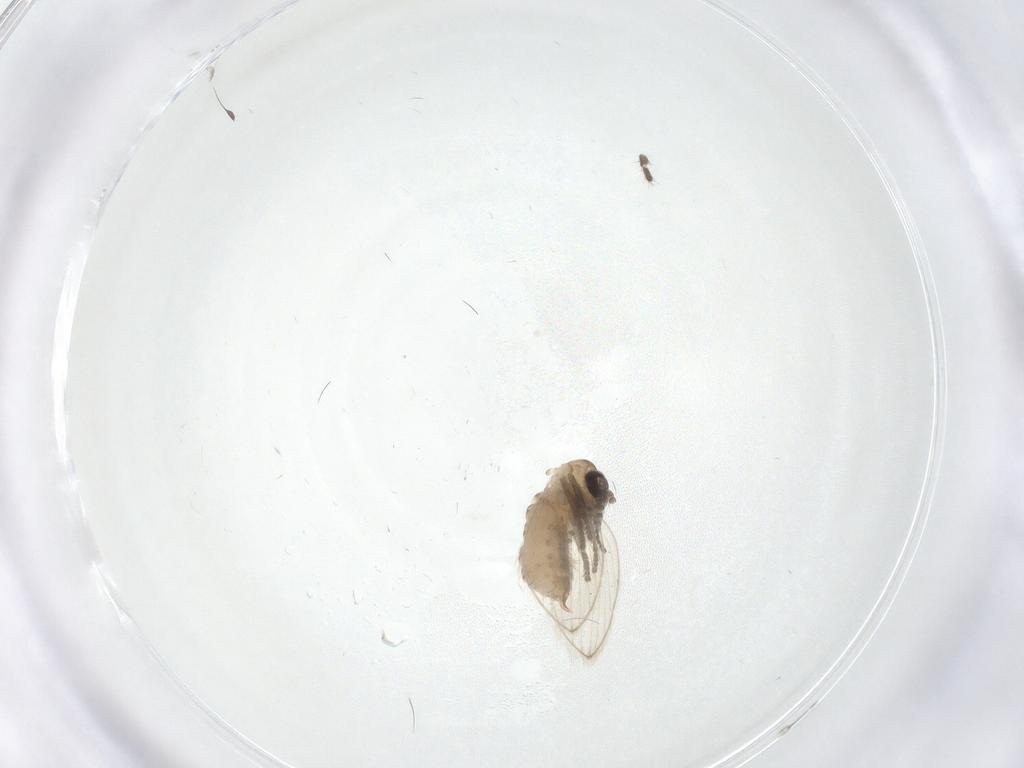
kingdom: Animalia
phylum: Arthropoda
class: Insecta
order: Diptera
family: Psychodidae
